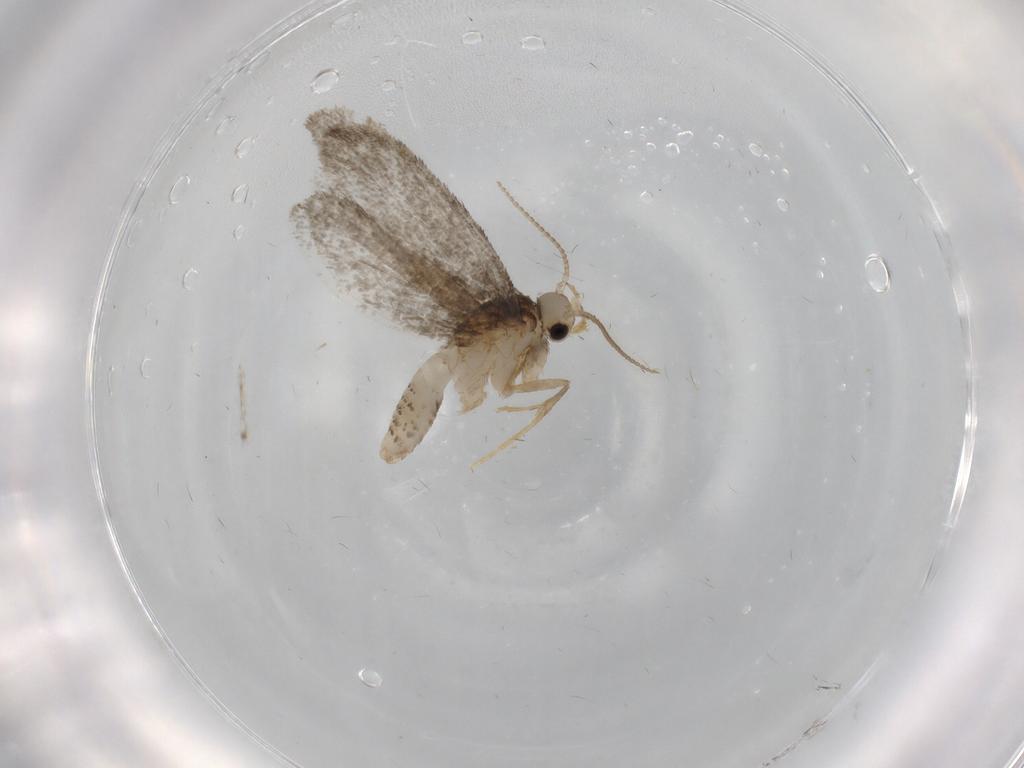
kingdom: Animalia
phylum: Arthropoda
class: Insecta
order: Lepidoptera
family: Psychidae
